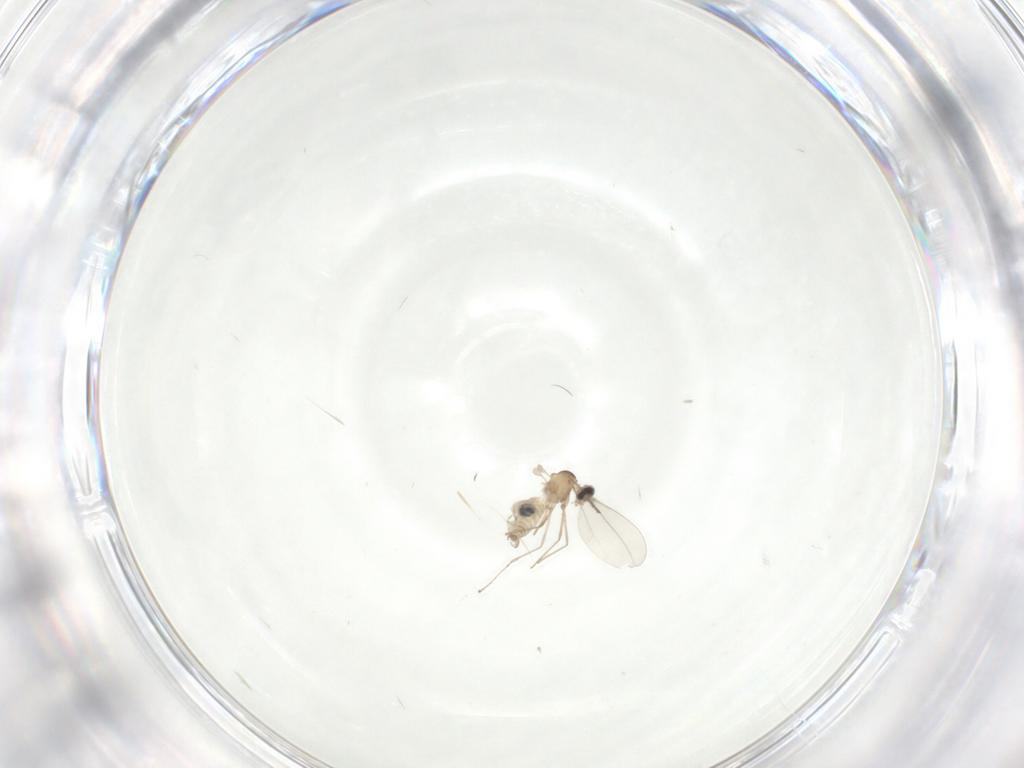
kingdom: Animalia
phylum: Arthropoda
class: Insecta
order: Diptera
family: Cecidomyiidae
